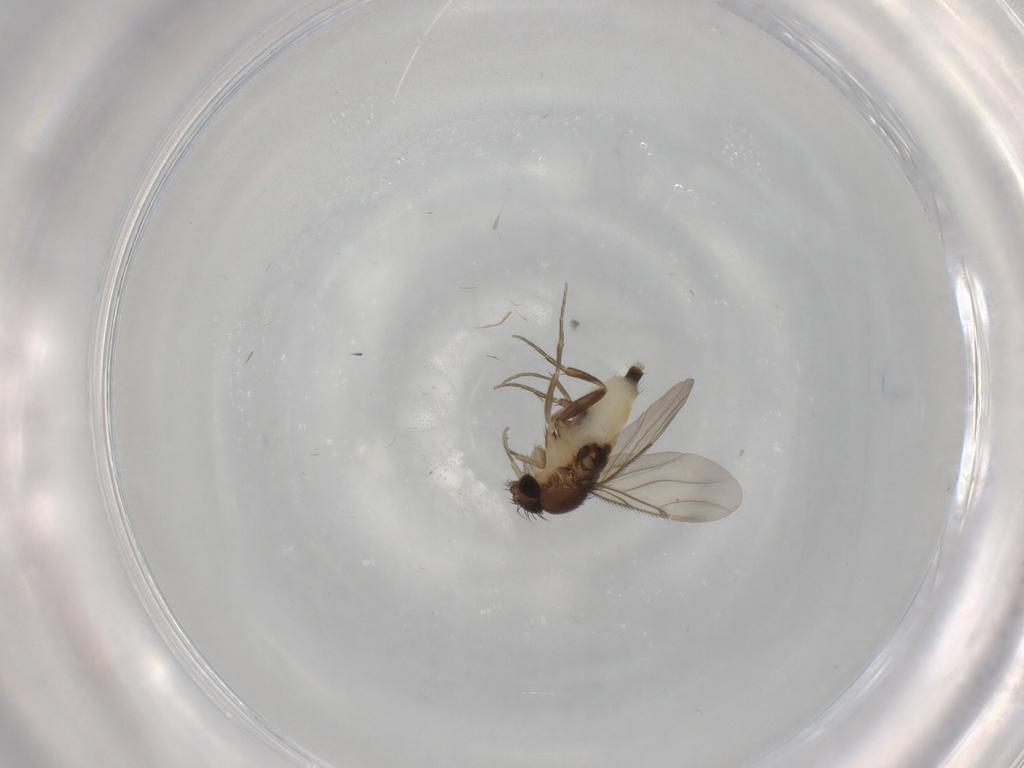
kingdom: Animalia
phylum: Arthropoda
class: Insecta
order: Diptera
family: Phoridae
